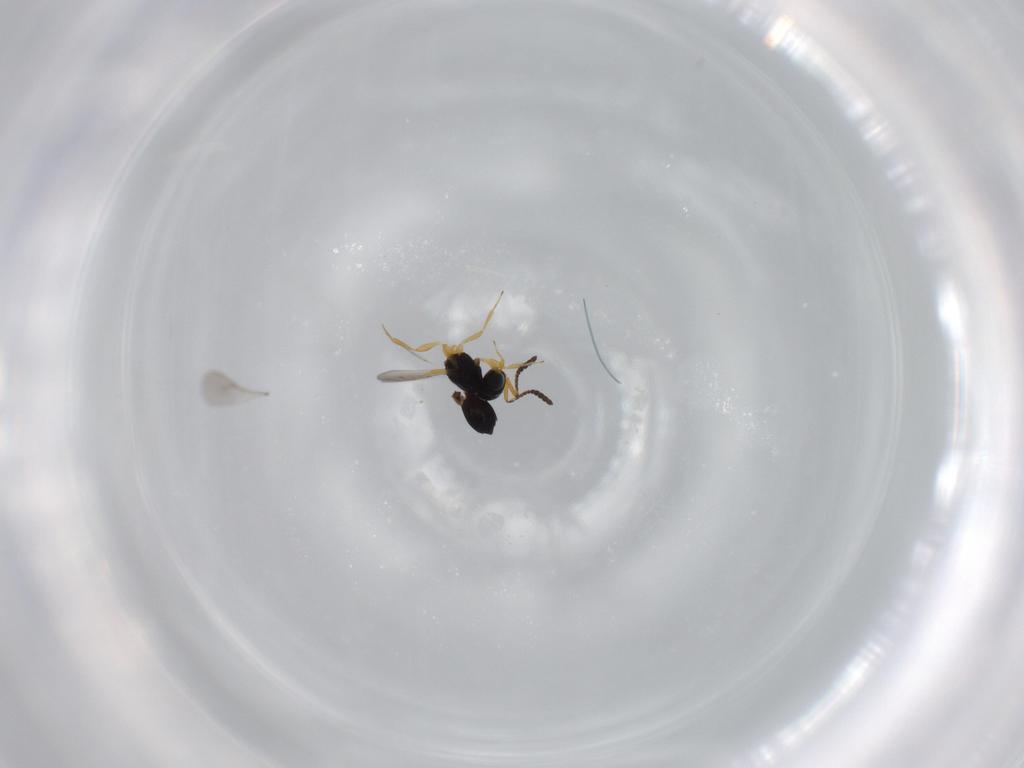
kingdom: Animalia
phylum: Arthropoda
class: Insecta
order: Hymenoptera
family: Scelionidae
